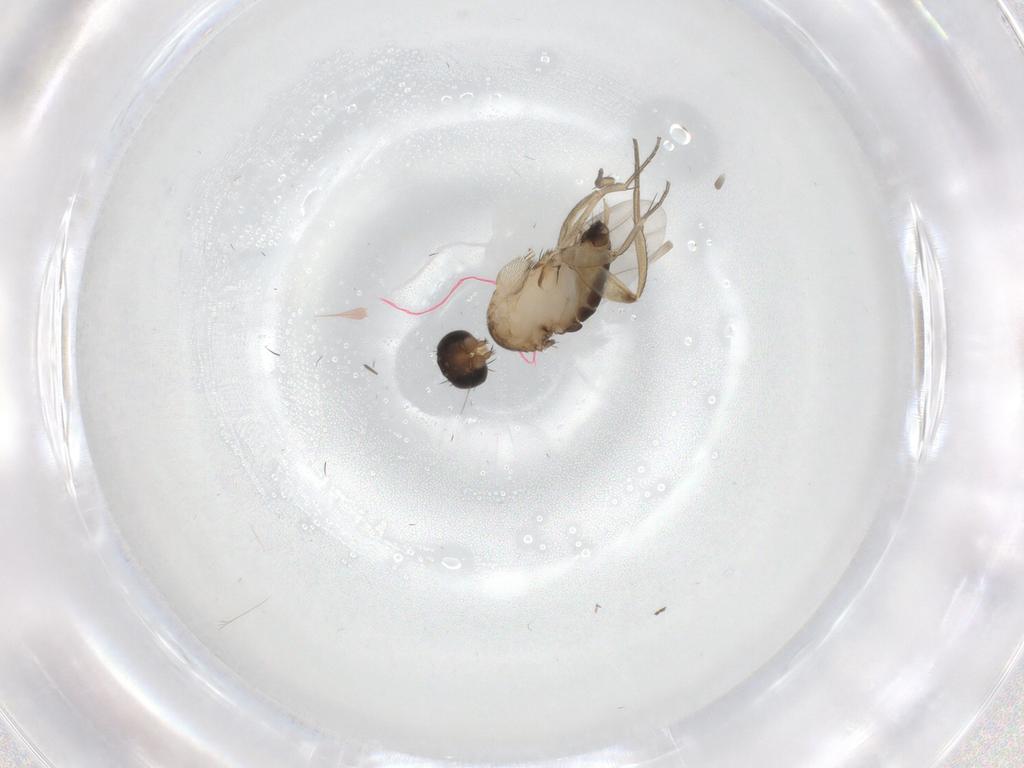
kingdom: Animalia
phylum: Arthropoda
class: Insecta
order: Diptera
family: Phoridae
